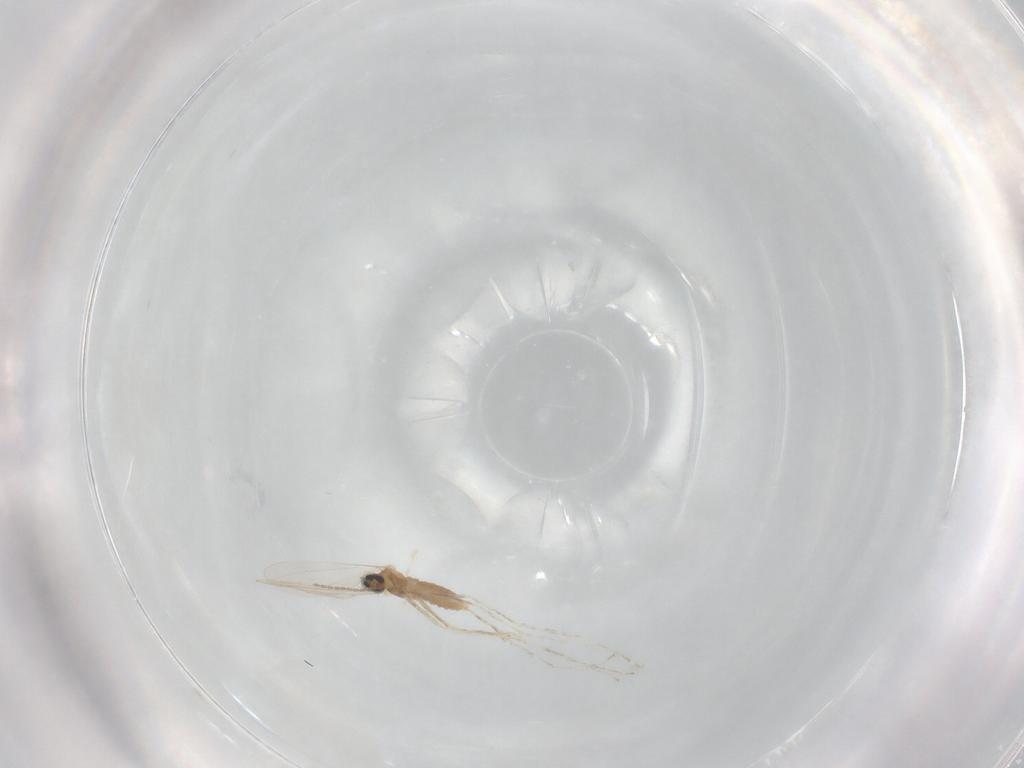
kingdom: Animalia
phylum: Arthropoda
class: Insecta
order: Diptera
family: Cecidomyiidae
